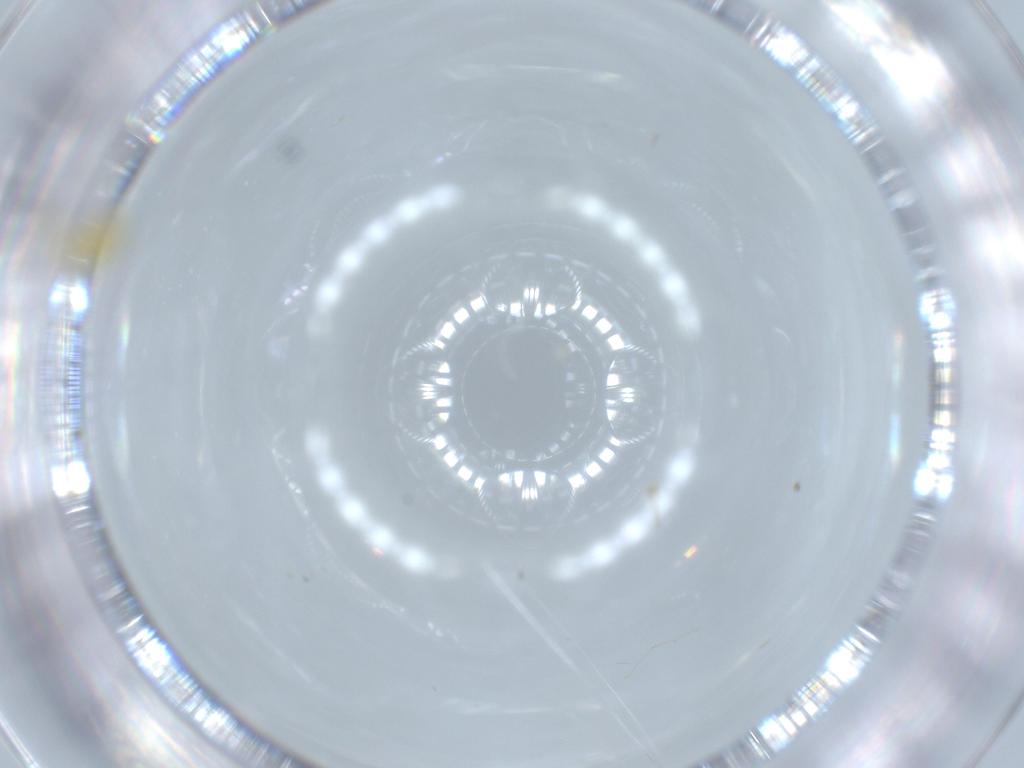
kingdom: Animalia
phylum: Arthropoda
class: Insecta
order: Diptera
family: Cecidomyiidae
